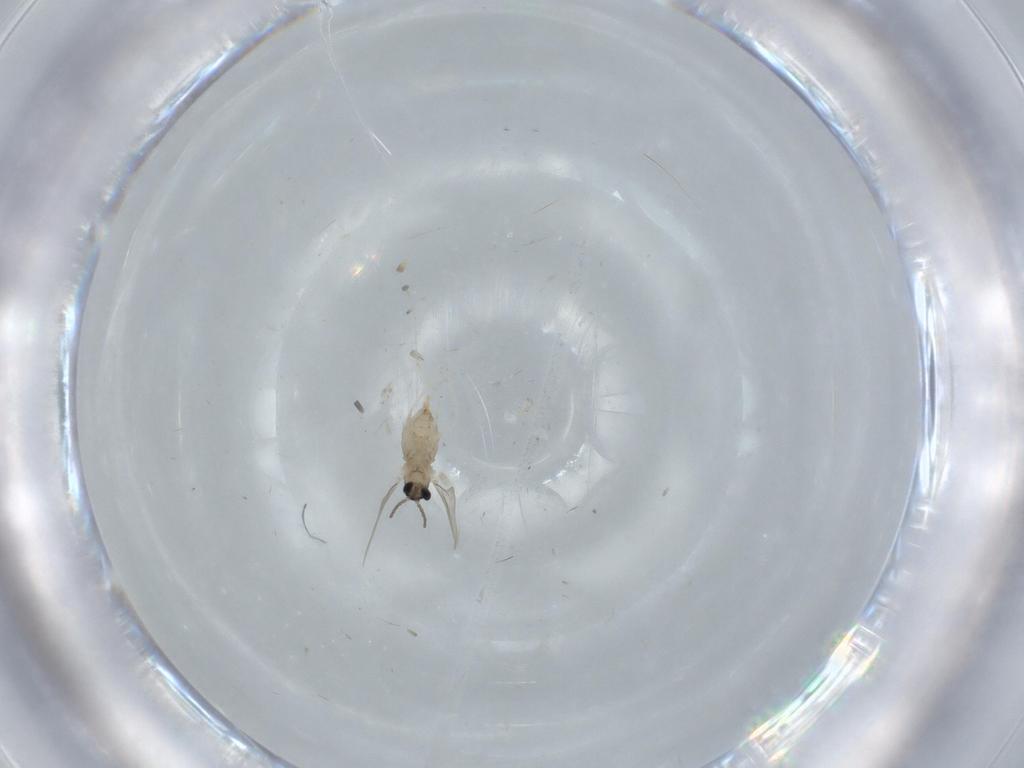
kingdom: Animalia
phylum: Arthropoda
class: Insecta
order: Diptera
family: Cecidomyiidae
